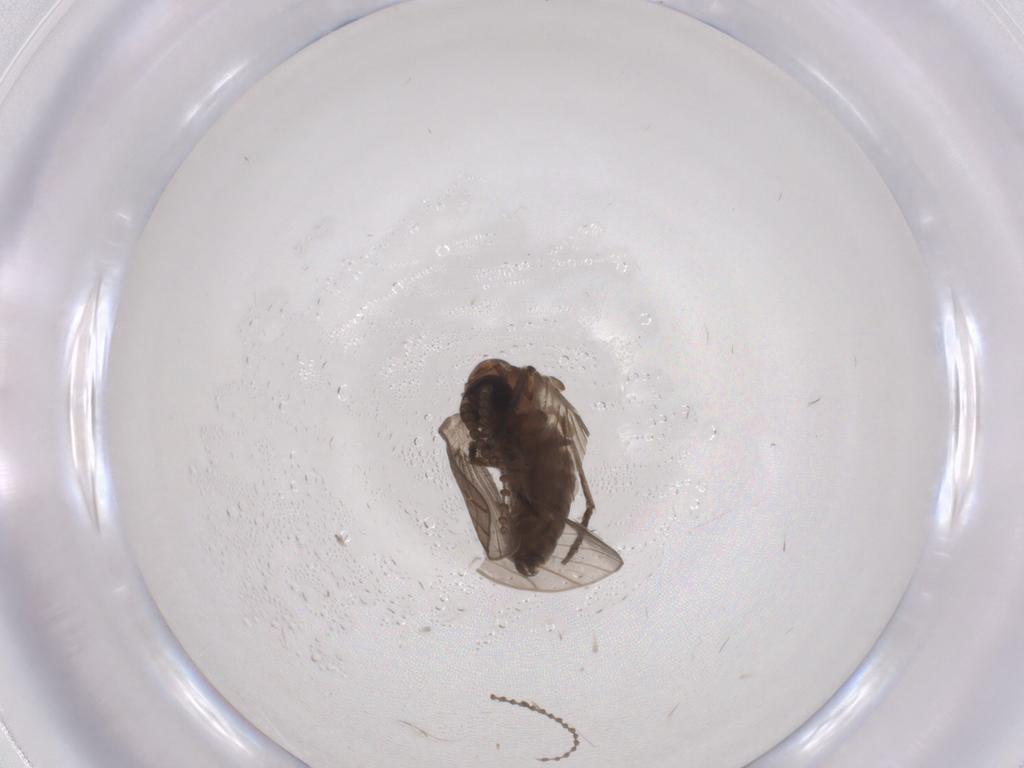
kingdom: Animalia
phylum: Arthropoda
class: Insecta
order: Diptera
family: Psychodidae
